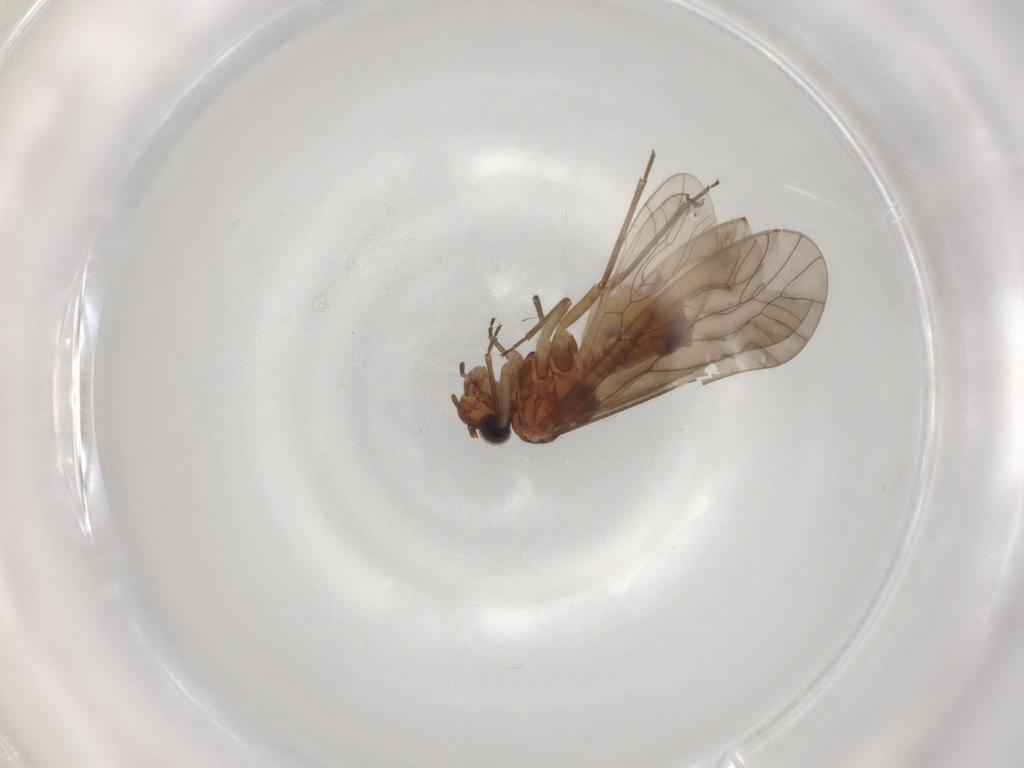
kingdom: Animalia
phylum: Arthropoda
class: Insecta
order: Psocodea
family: Caeciliusidae
